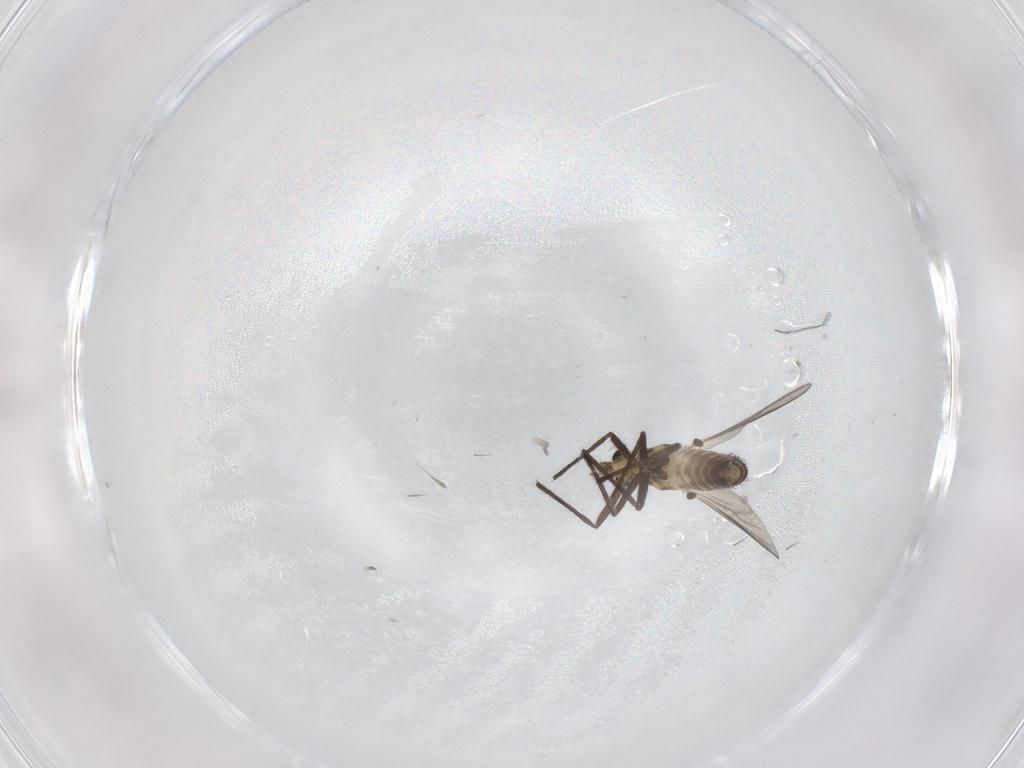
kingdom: Animalia
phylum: Arthropoda
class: Insecta
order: Diptera
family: Chironomidae
